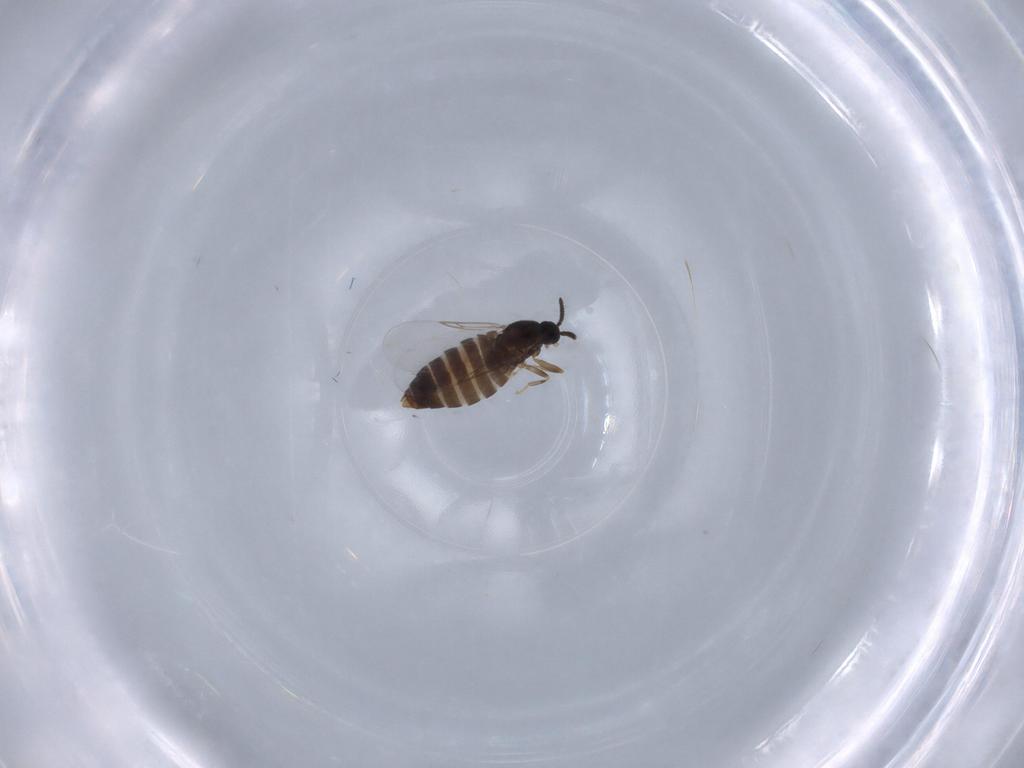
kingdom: Animalia
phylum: Arthropoda
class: Insecta
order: Diptera
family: Scatopsidae
